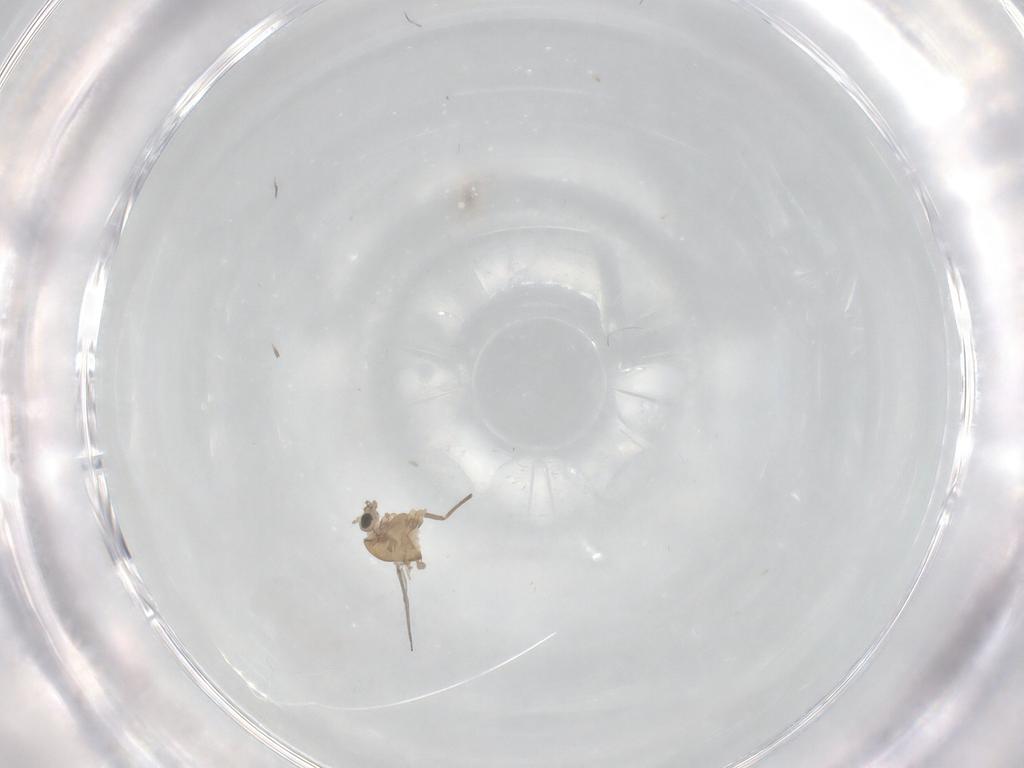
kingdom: Animalia
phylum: Arthropoda
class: Insecta
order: Diptera
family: Chironomidae
